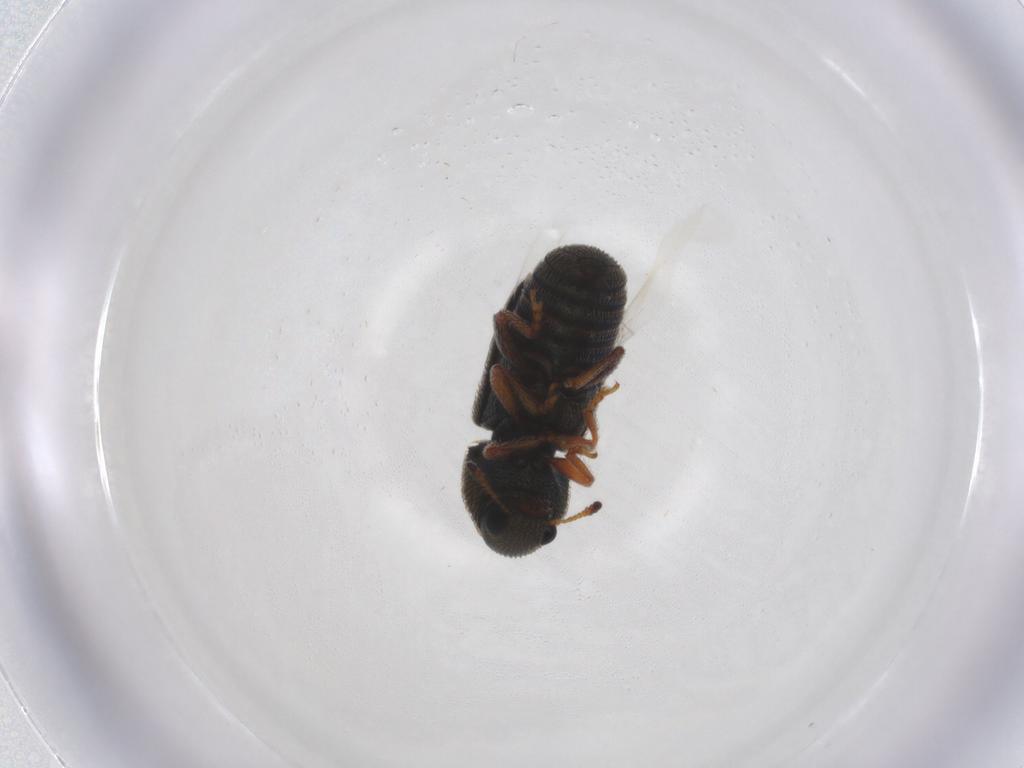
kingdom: Animalia
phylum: Arthropoda
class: Insecta
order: Coleoptera
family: Anthribidae
